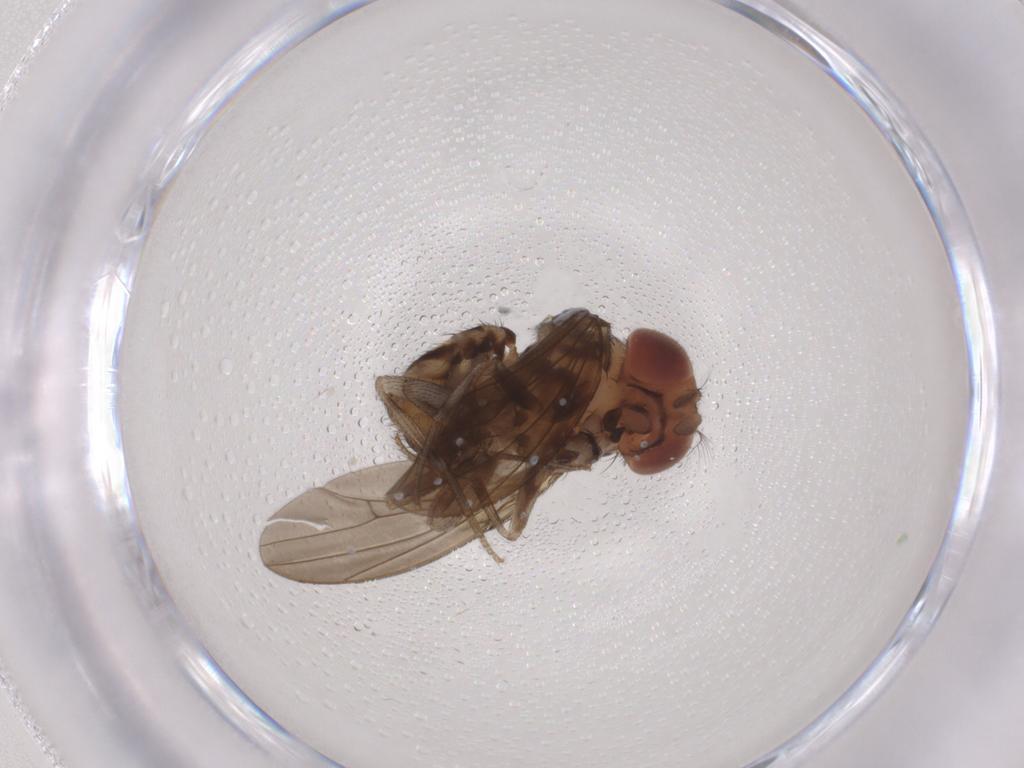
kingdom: Animalia
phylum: Arthropoda
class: Insecta
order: Diptera
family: Drosophilidae
